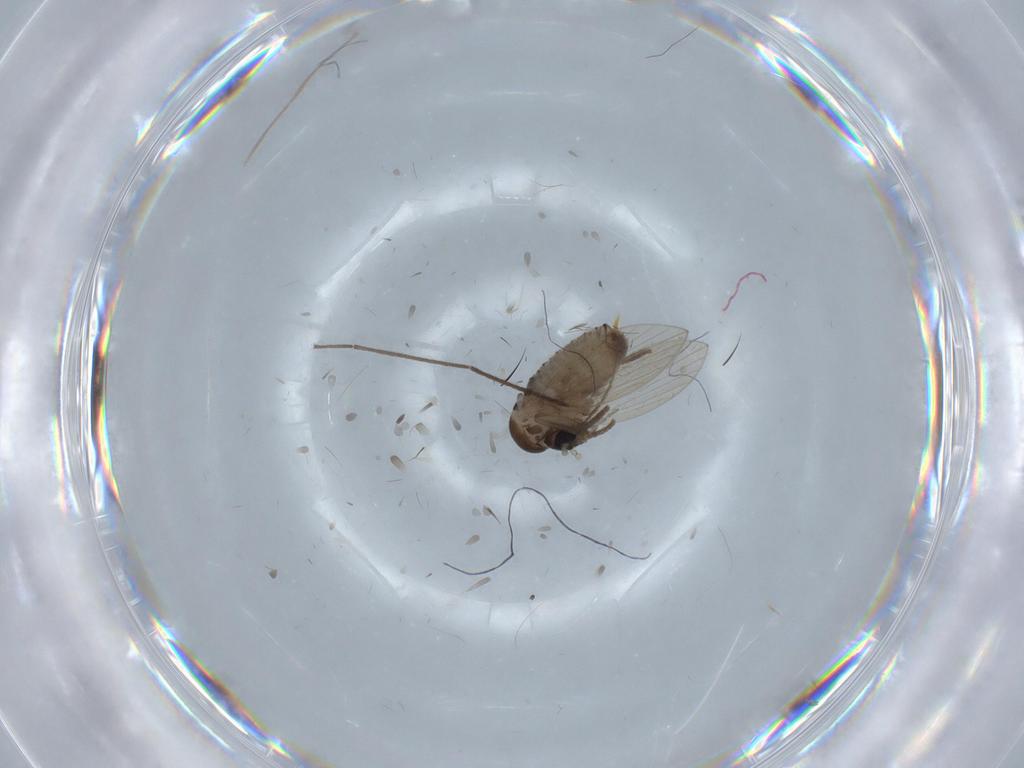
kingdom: Animalia
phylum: Arthropoda
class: Insecta
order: Diptera
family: Psychodidae
